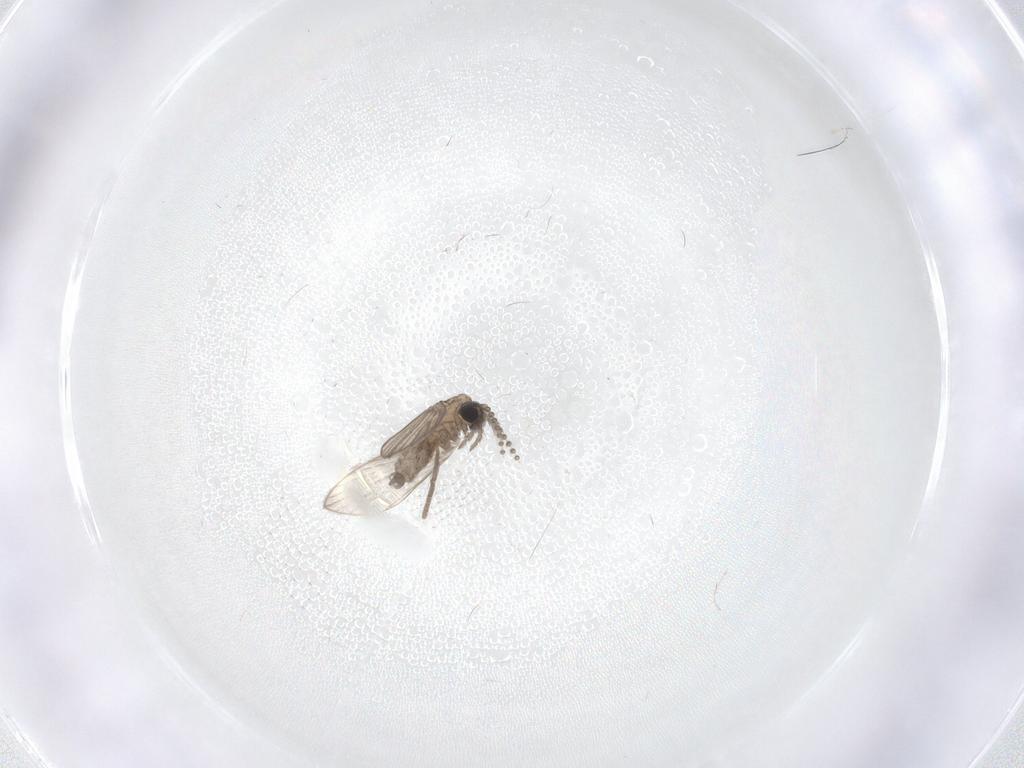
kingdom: Animalia
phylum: Arthropoda
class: Insecta
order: Diptera
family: Psychodidae
